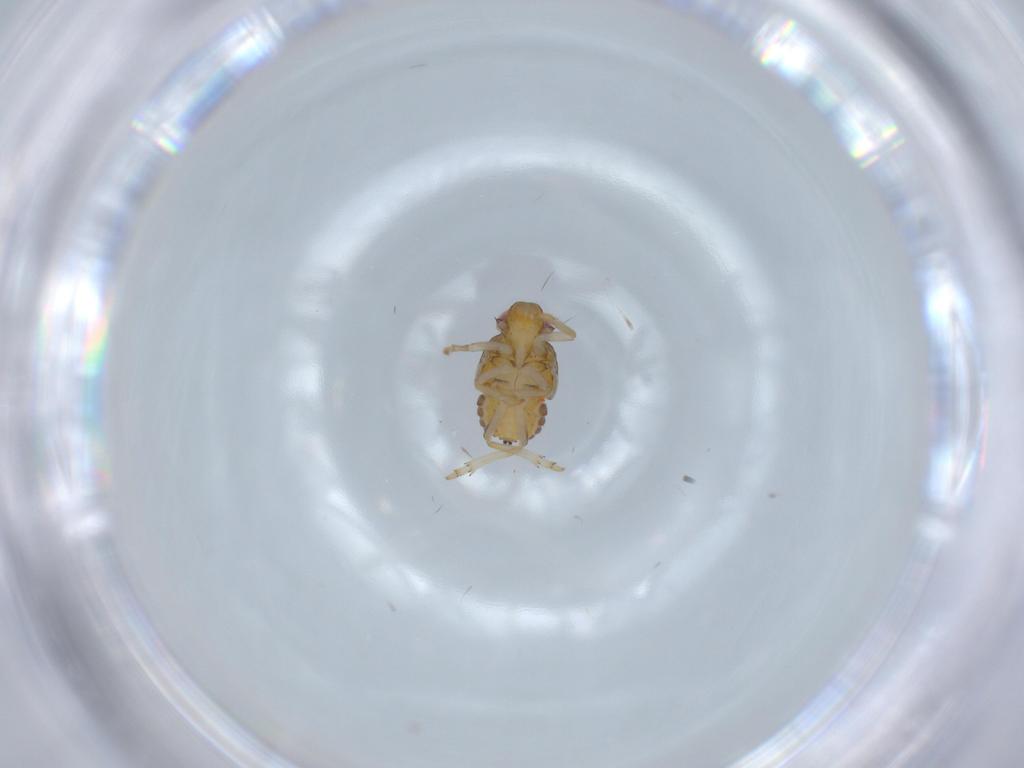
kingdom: Animalia
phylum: Arthropoda
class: Insecta
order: Hemiptera
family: Issidae
